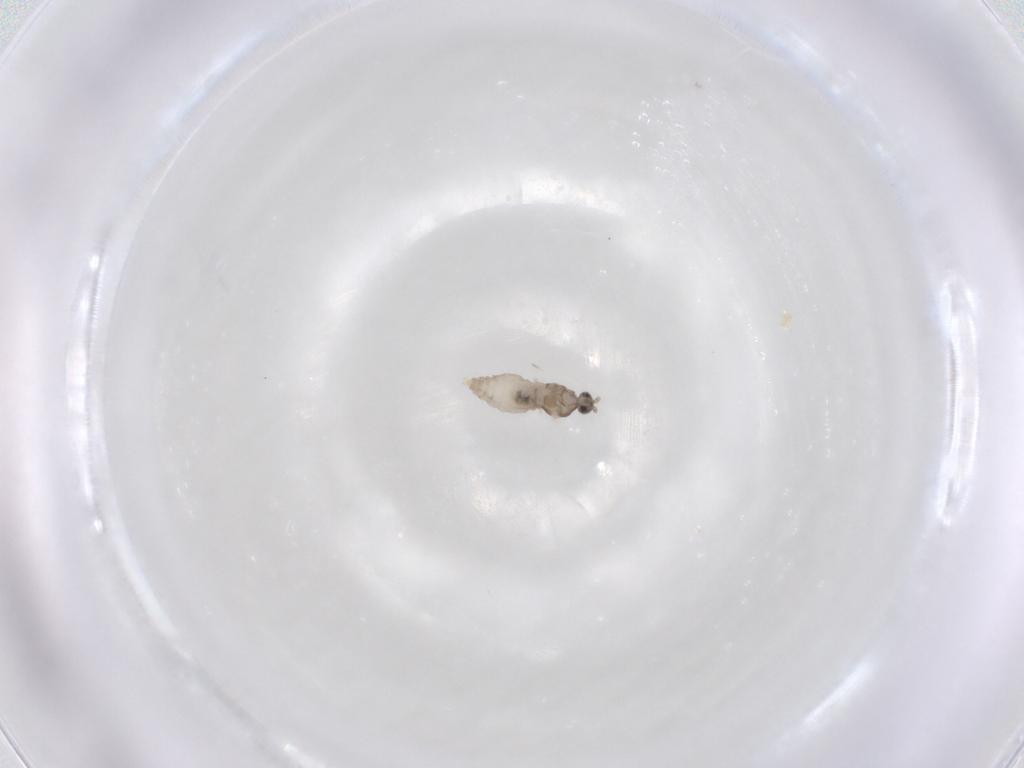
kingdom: Animalia
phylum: Arthropoda
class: Insecta
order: Diptera
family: Cecidomyiidae
